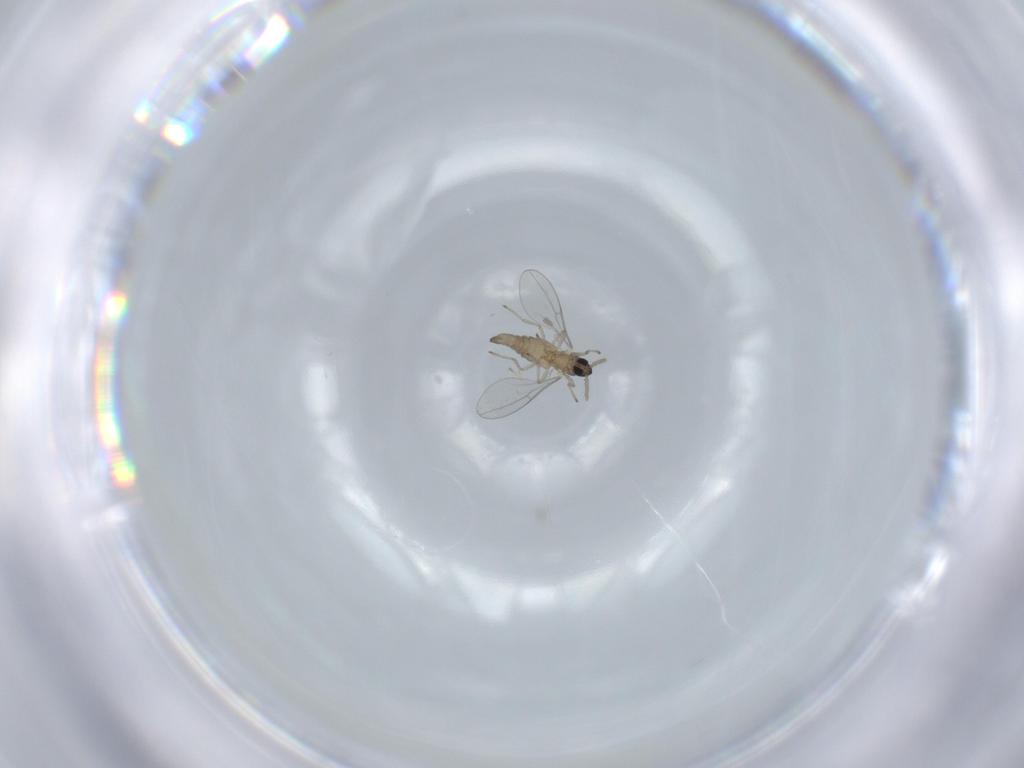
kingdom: Animalia
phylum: Arthropoda
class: Insecta
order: Diptera
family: Cecidomyiidae
